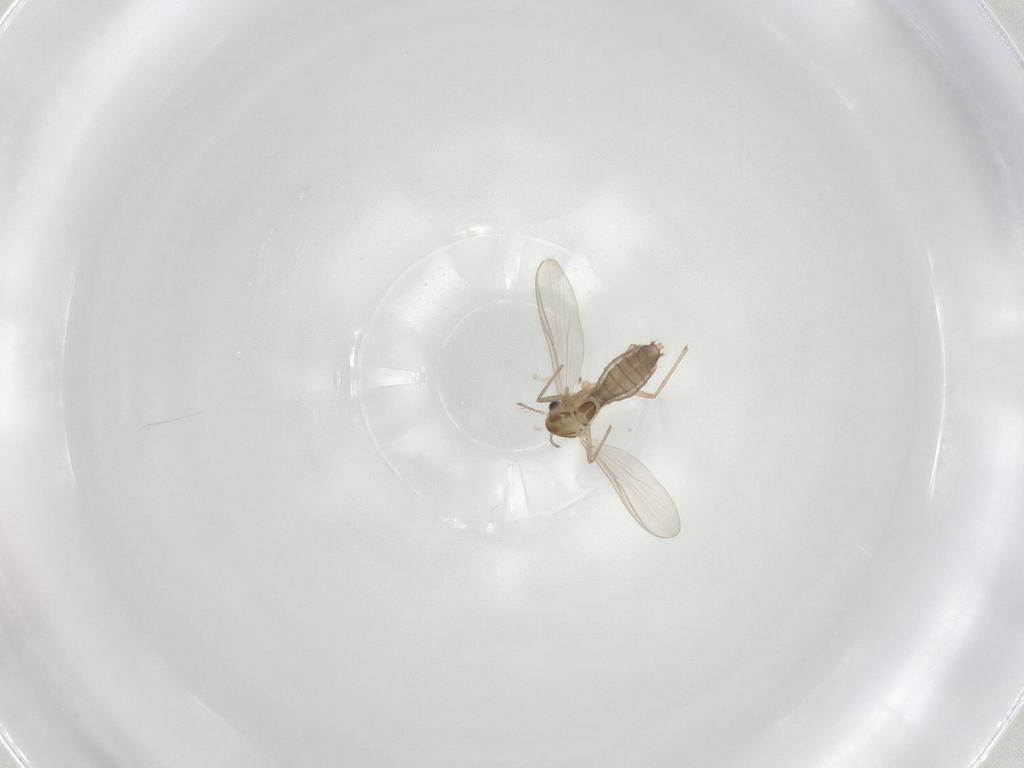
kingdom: Animalia
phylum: Arthropoda
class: Insecta
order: Diptera
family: Chironomidae
